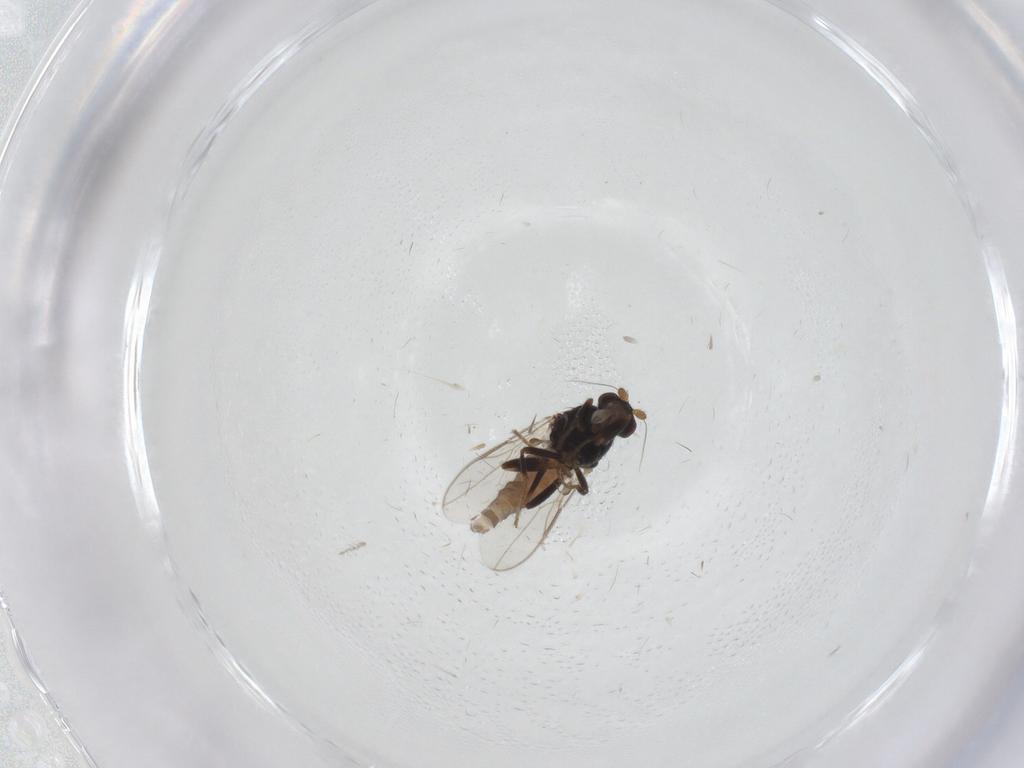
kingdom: Animalia
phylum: Arthropoda
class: Insecta
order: Diptera
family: Sphaeroceridae
